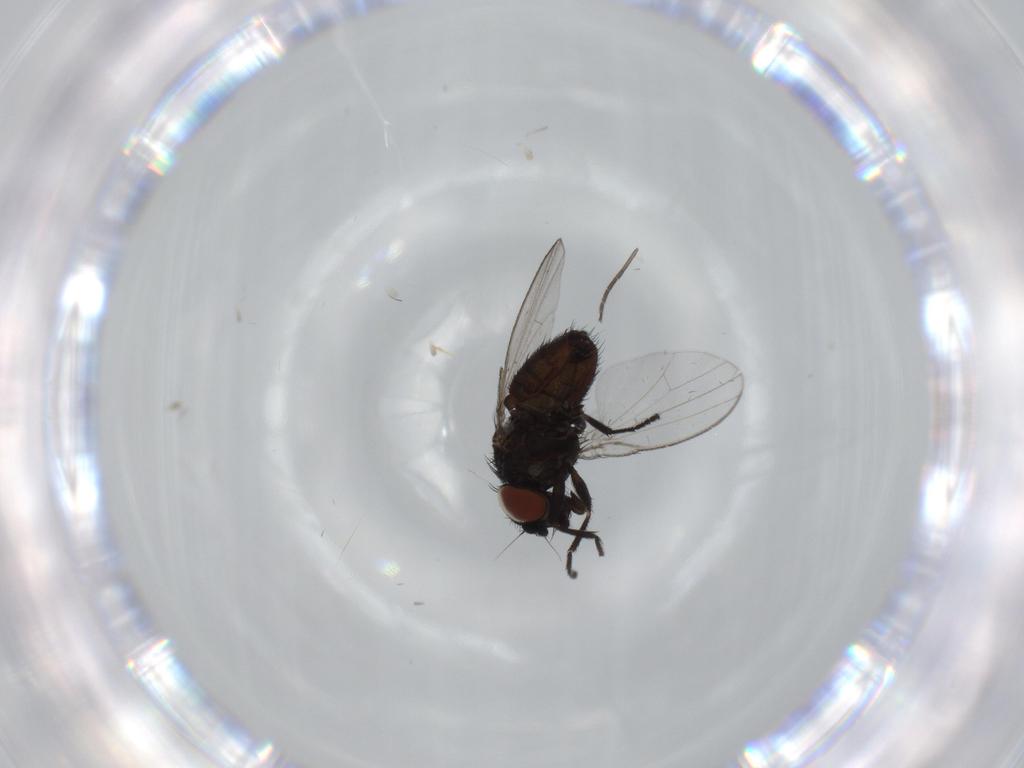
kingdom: Animalia
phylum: Arthropoda
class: Insecta
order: Diptera
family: Milichiidae
